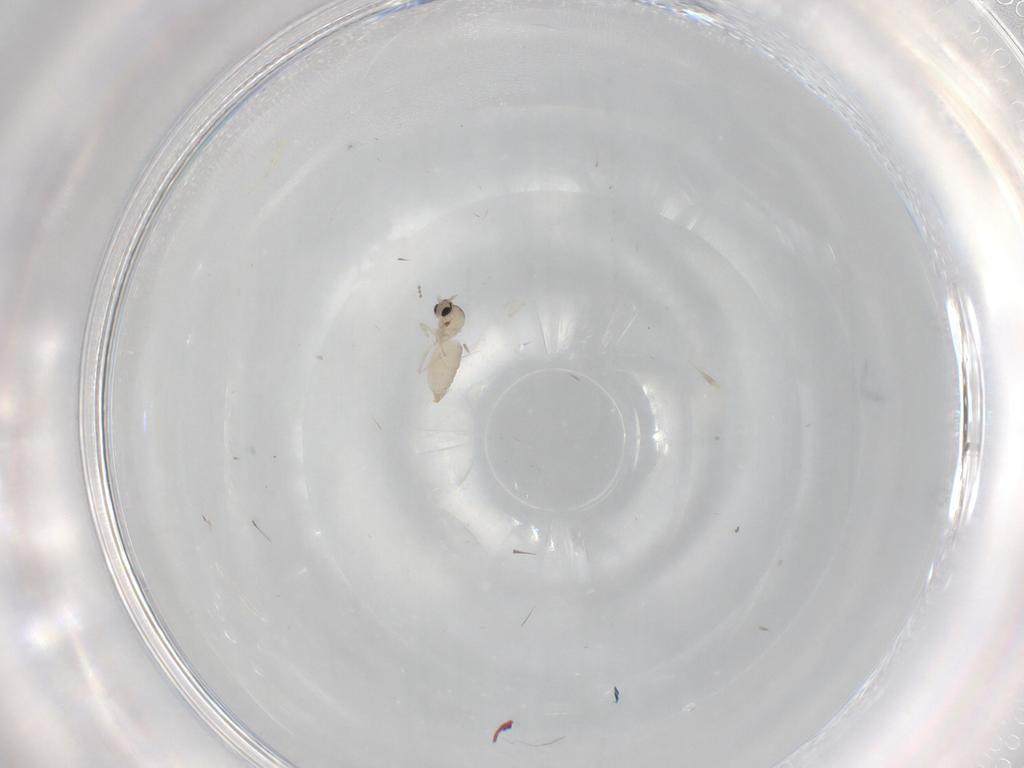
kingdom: Animalia
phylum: Arthropoda
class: Insecta
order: Diptera
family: Cecidomyiidae
